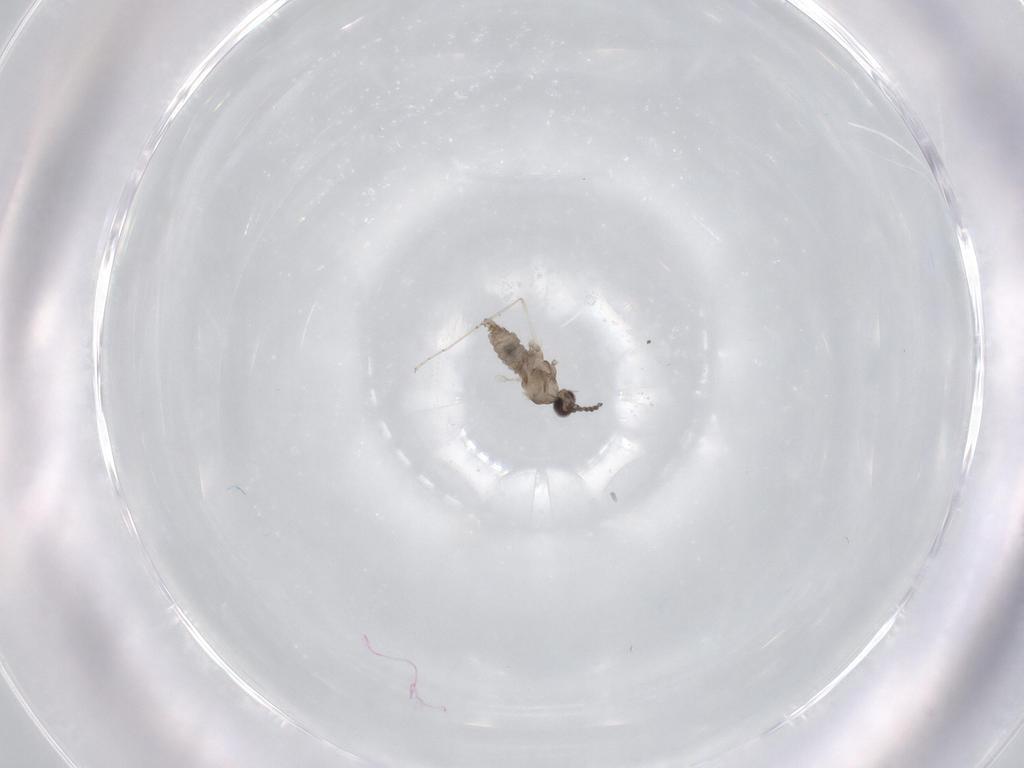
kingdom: Animalia
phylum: Arthropoda
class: Insecta
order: Diptera
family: Cecidomyiidae
